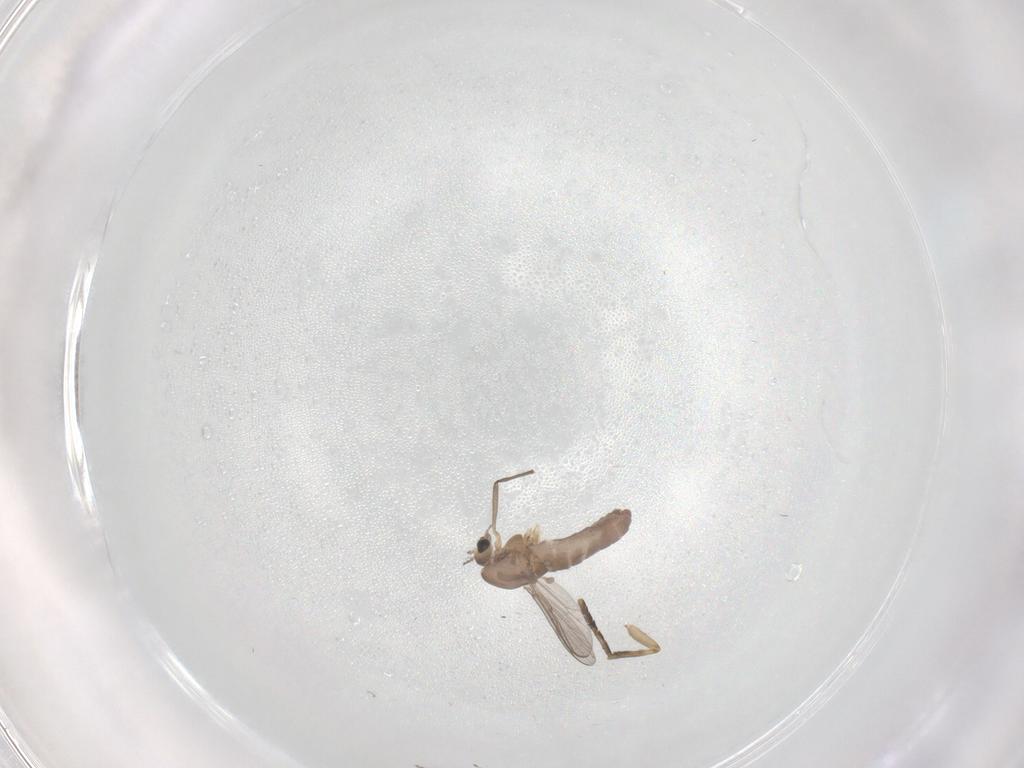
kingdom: Animalia
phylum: Arthropoda
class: Insecta
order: Diptera
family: Chironomidae
